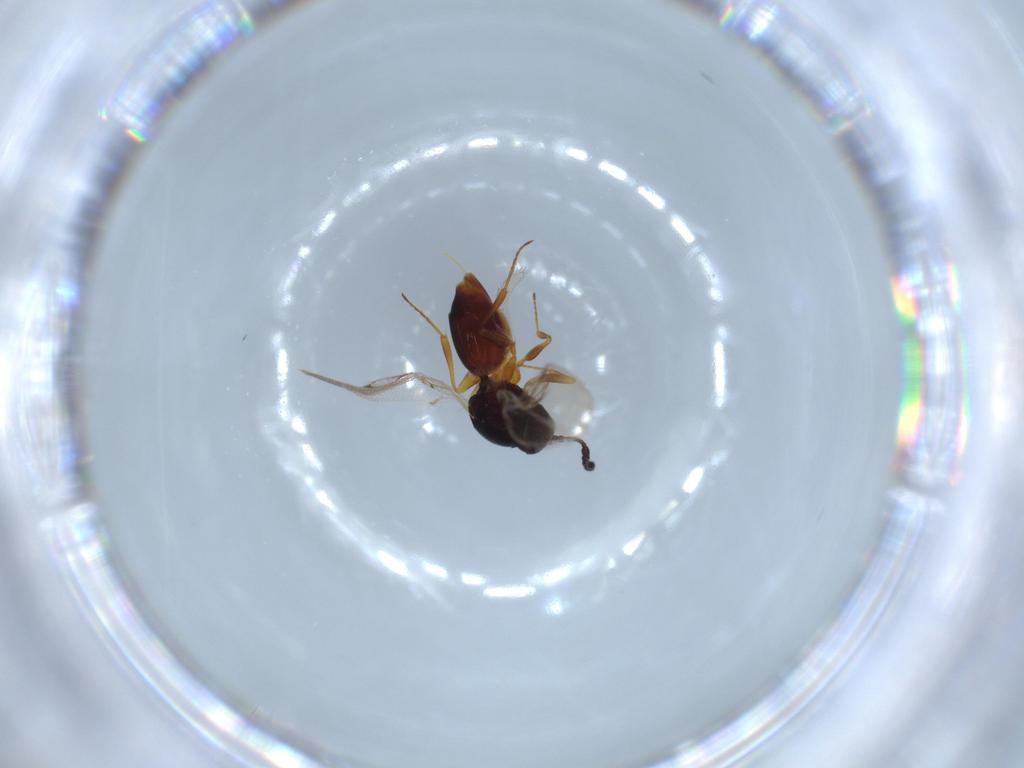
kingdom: Animalia
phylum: Arthropoda
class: Insecta
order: Hymenoptera
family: Figitidae
